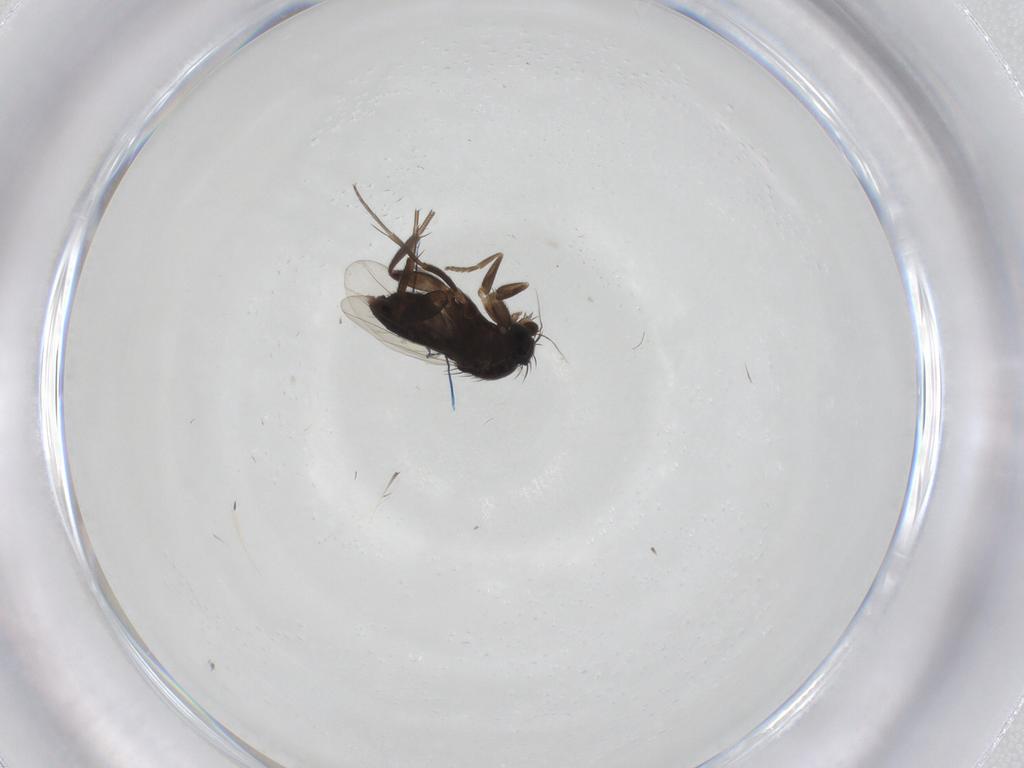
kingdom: Animalia
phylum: Arthropoda
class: Insecta
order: Diptera
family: Phoridae
